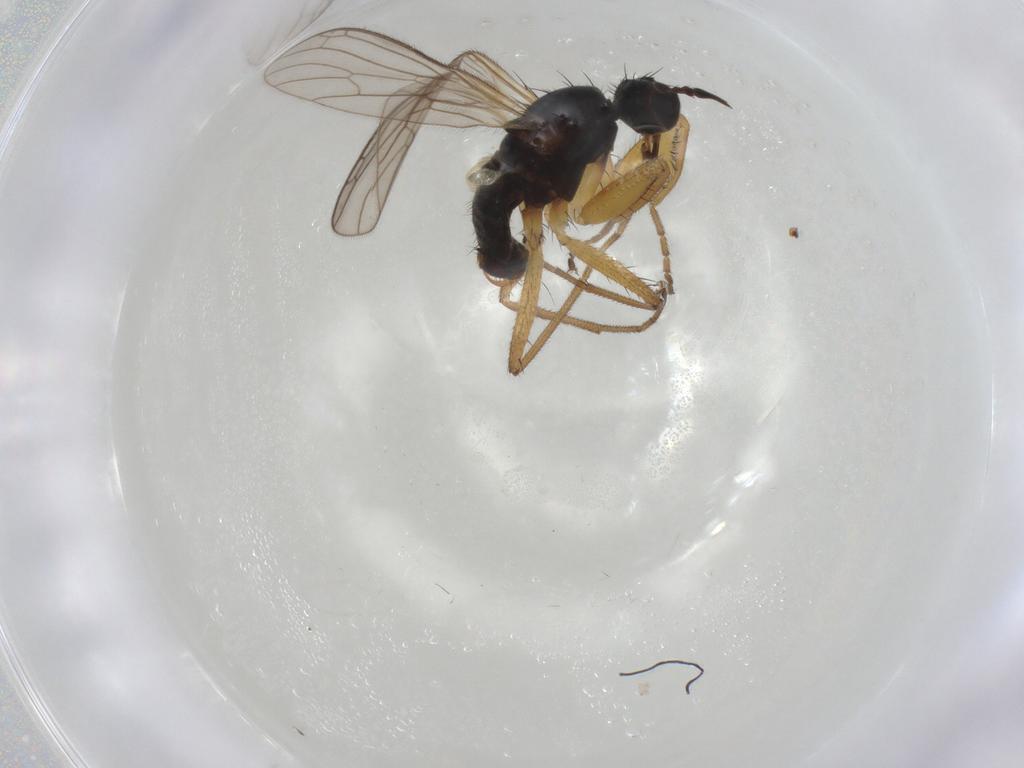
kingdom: Animalia
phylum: Arthropoda
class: Insecta
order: Diptera
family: Empididae
